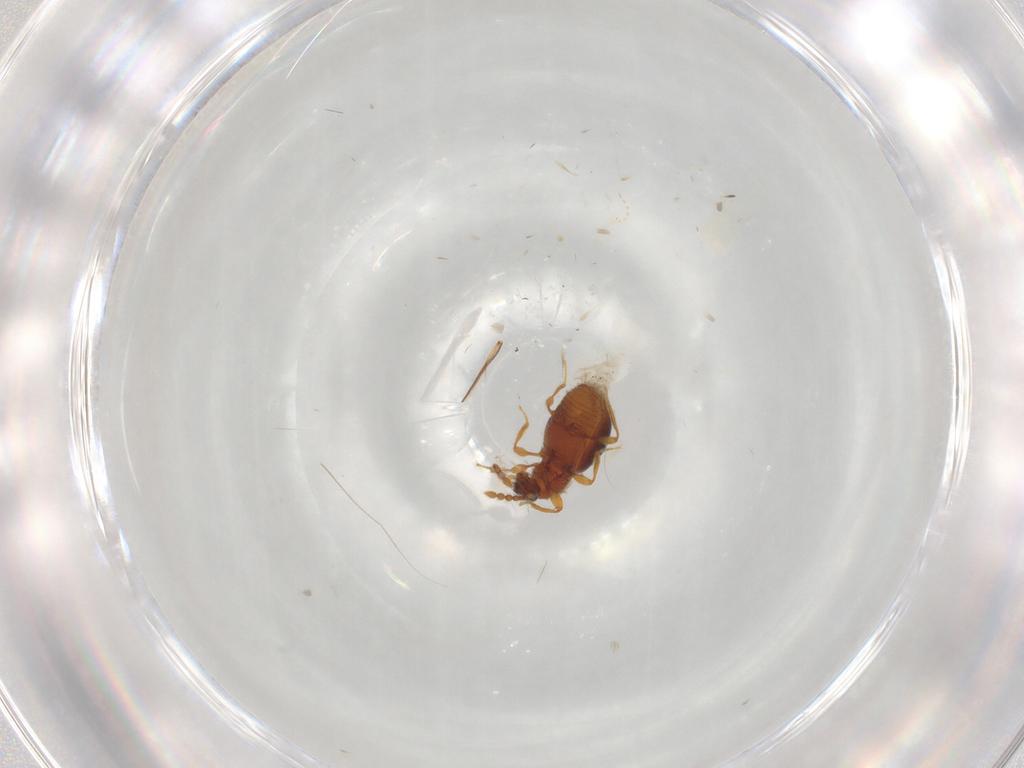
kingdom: Animalia
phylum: Arthropoda
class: Insecta
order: Coleoptera
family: Staphylinidae
